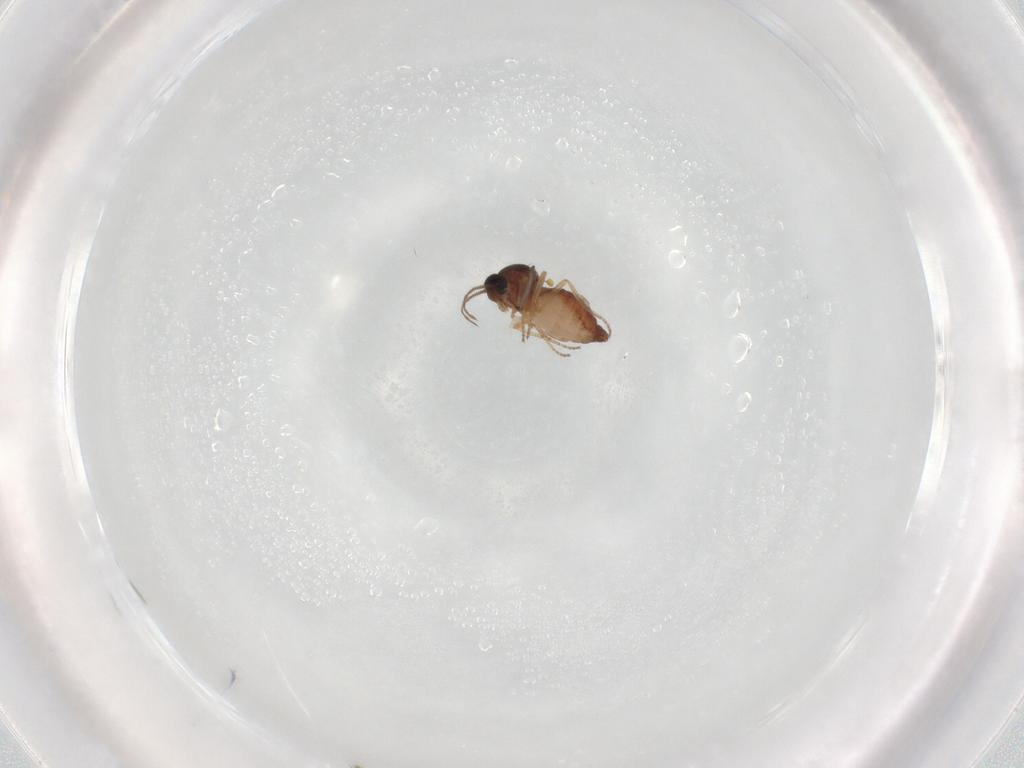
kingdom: Animalia
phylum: Arthropoda
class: Insecta
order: Diptera
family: Ceratopogonidae
